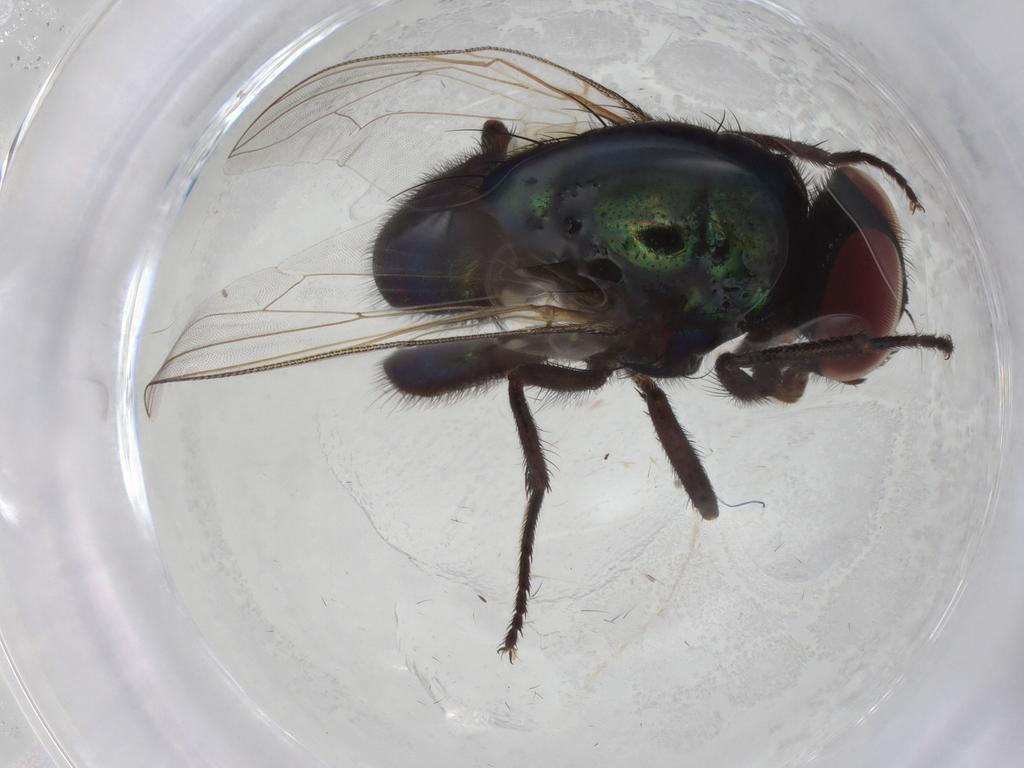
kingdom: Animalia
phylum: Arthropoda
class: Insecta
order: Diptera
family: Muscidae
